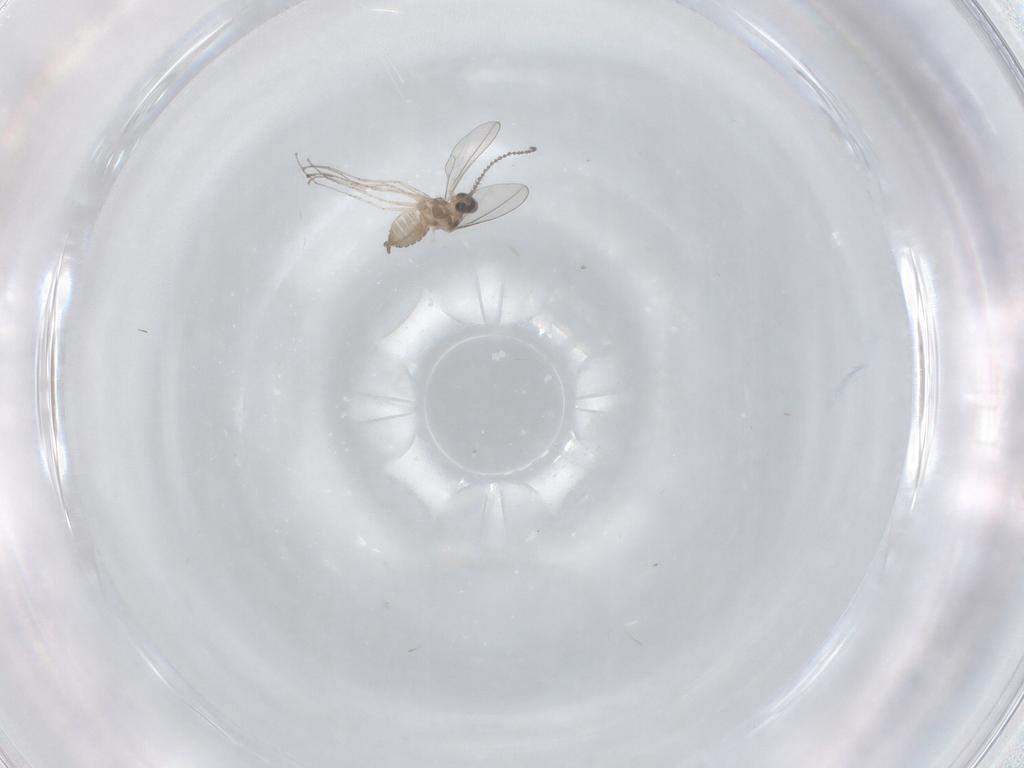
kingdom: Animalia
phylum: Arthropoda
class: Insecta
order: Diptera
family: Cecidomyiidae
